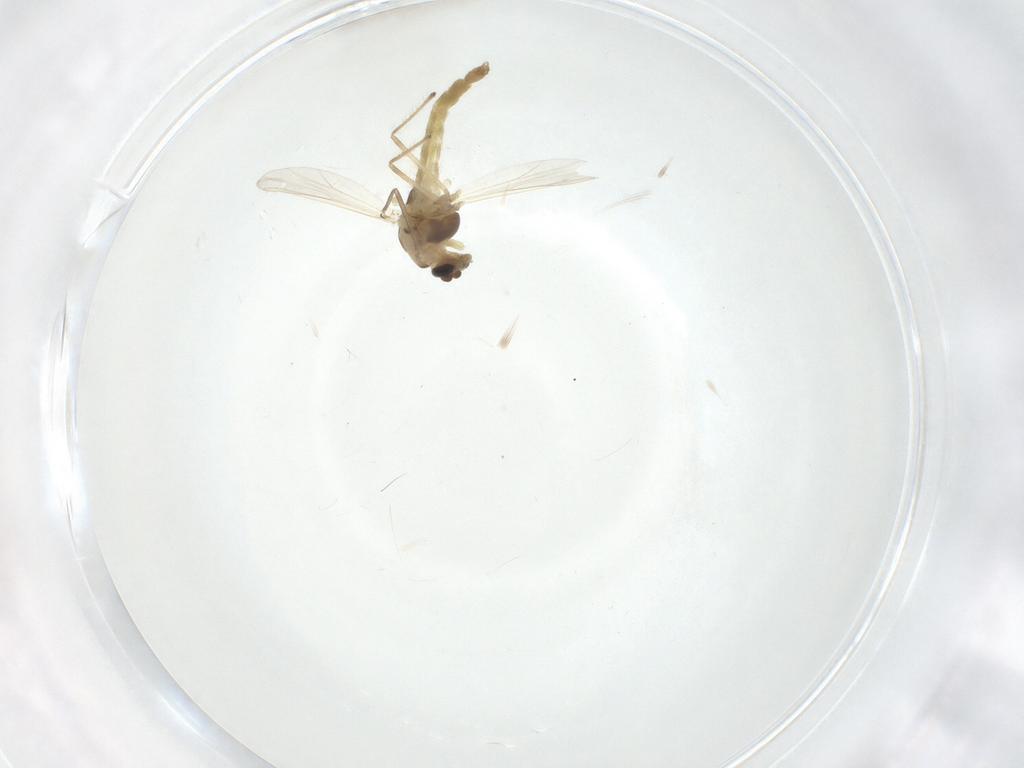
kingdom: Animalia
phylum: Arthropoda
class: Insecta
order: Diptera
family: Chironomidae
